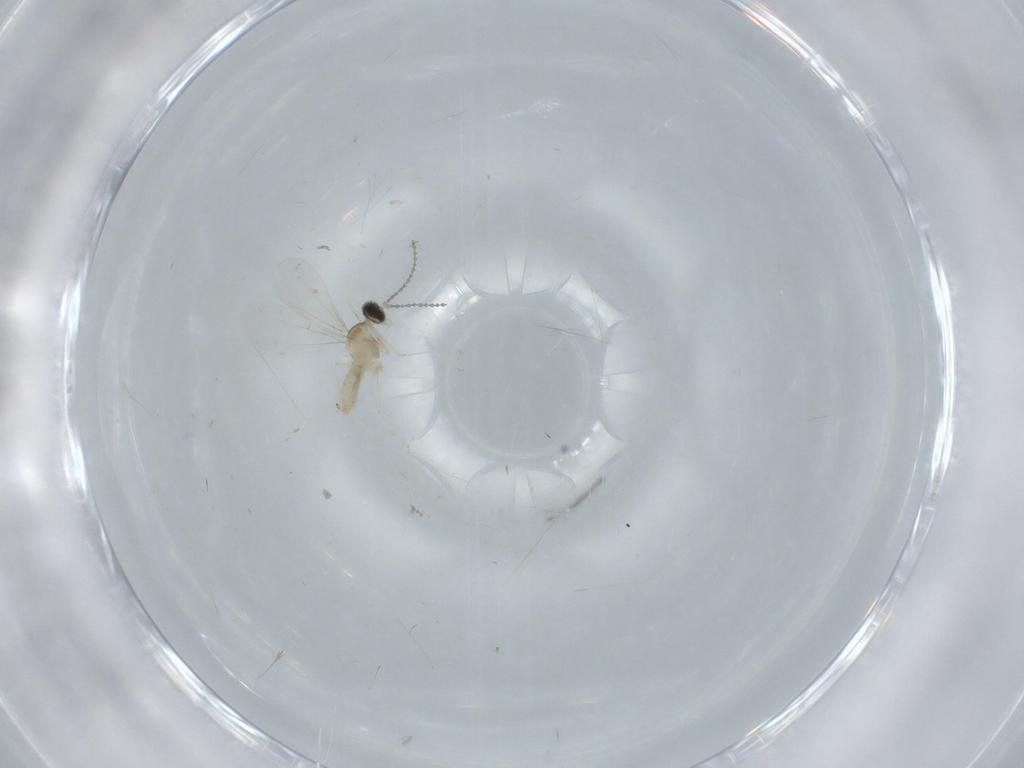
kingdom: Animalia
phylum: Arthropoda
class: Insecta
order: Diptera
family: Cecidomyiidae
